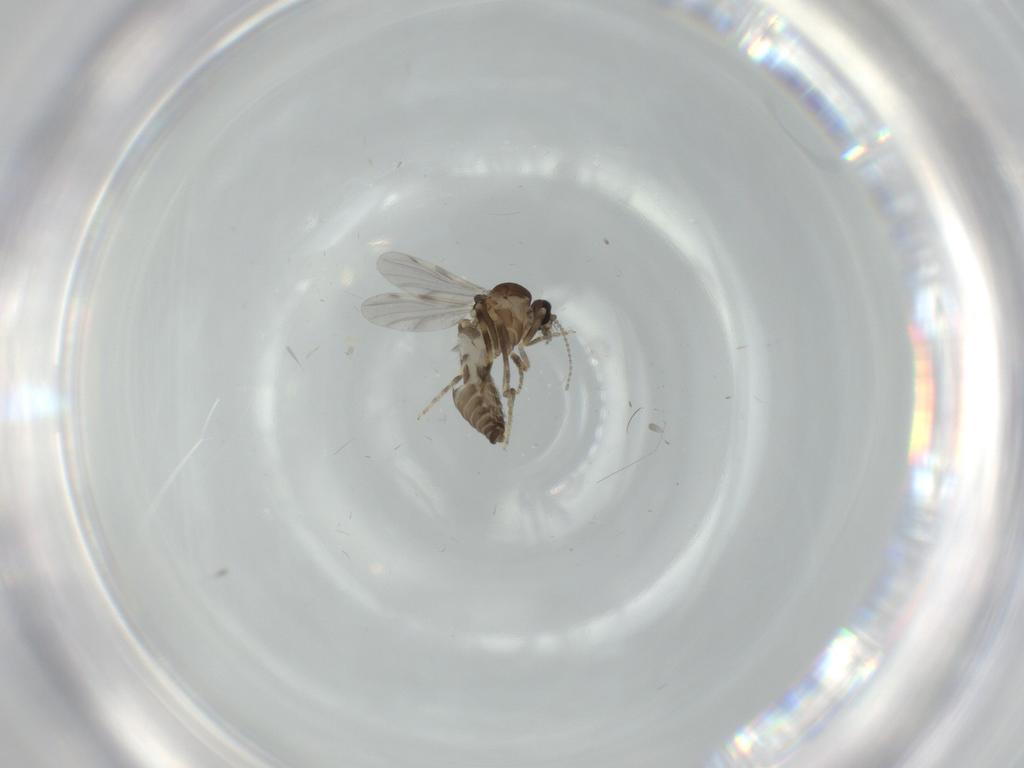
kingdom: Animalia
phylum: Arthropoda
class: Insecta
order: Diptera
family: Ceratopogonidae
